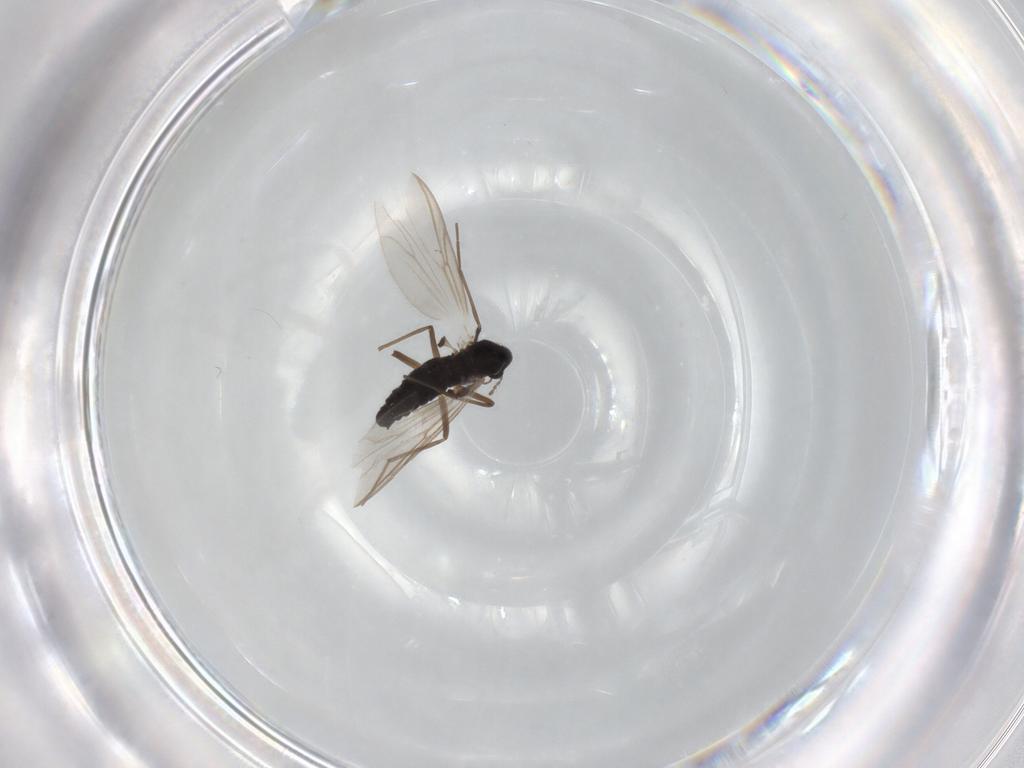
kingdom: Animalia
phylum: Arthropoda
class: Insecta
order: Diptera
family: Chironomidae
